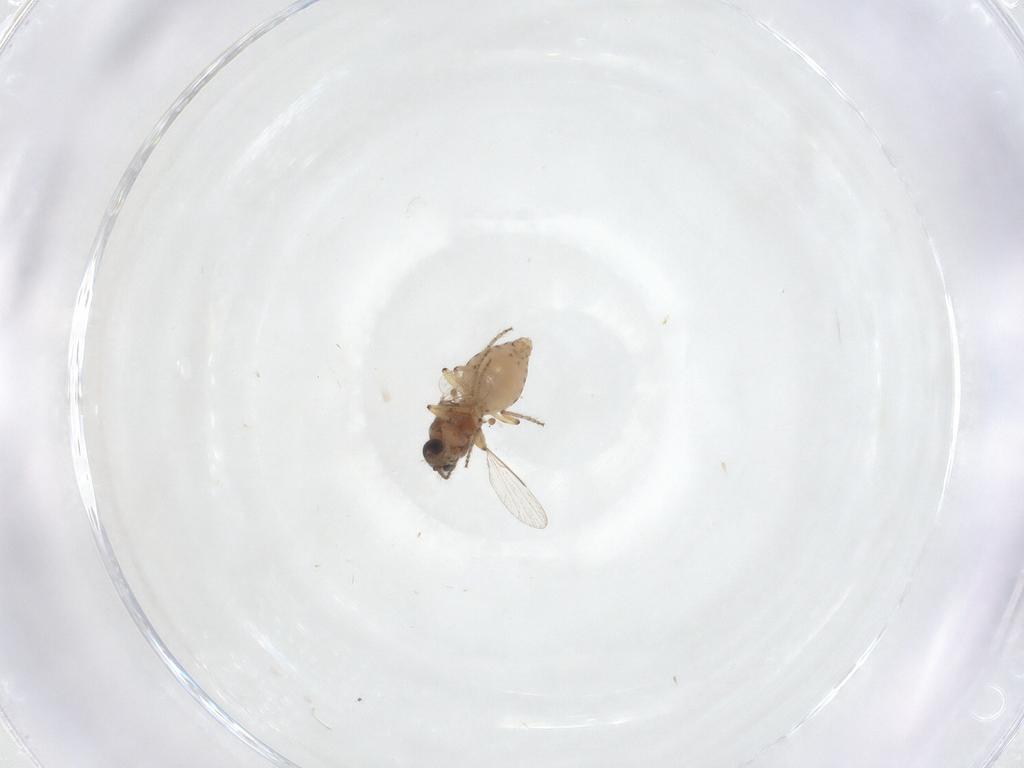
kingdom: Animalia
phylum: Arthropoda
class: Insecta
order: Diptera
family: Ceratopogonidae
